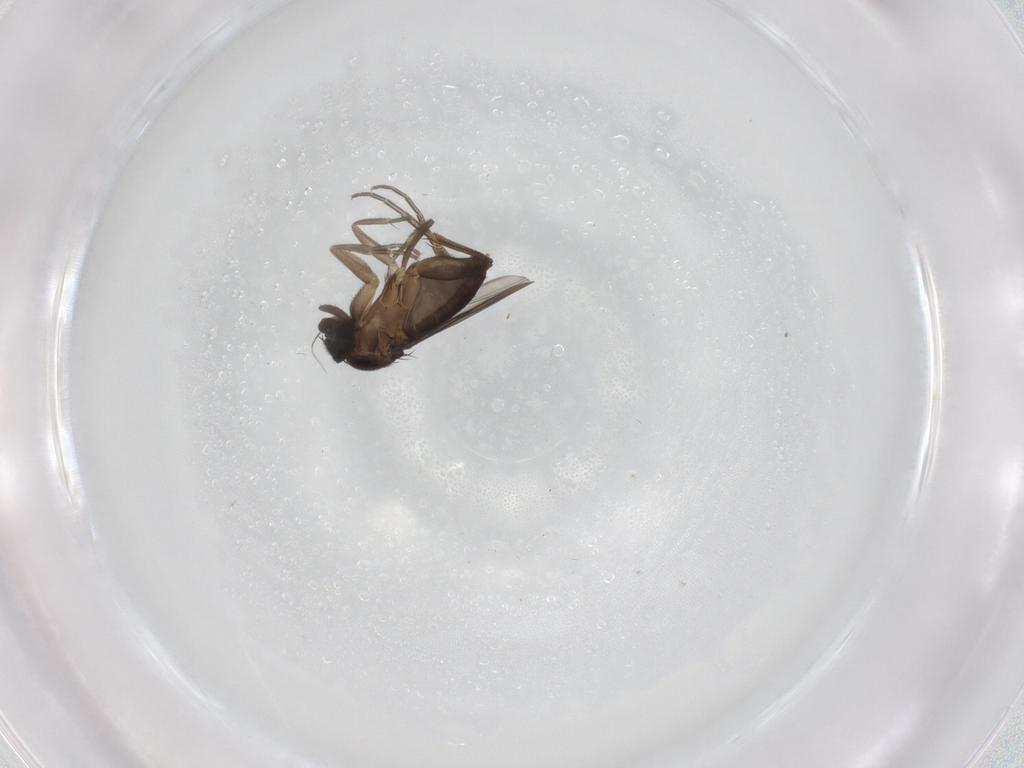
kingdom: Animalia
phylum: Arthropoda
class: Insecta
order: Diptera
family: Phoridae
